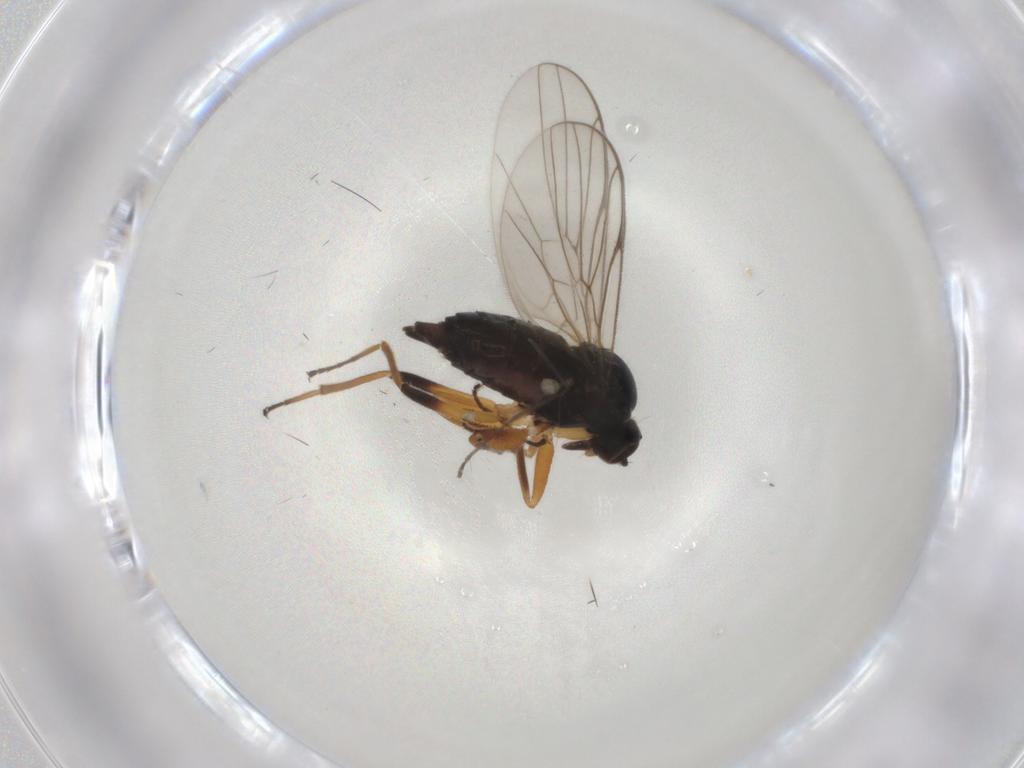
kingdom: Animalia
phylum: Arthropoda
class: Insecta
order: Diptera
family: Hybotidae
